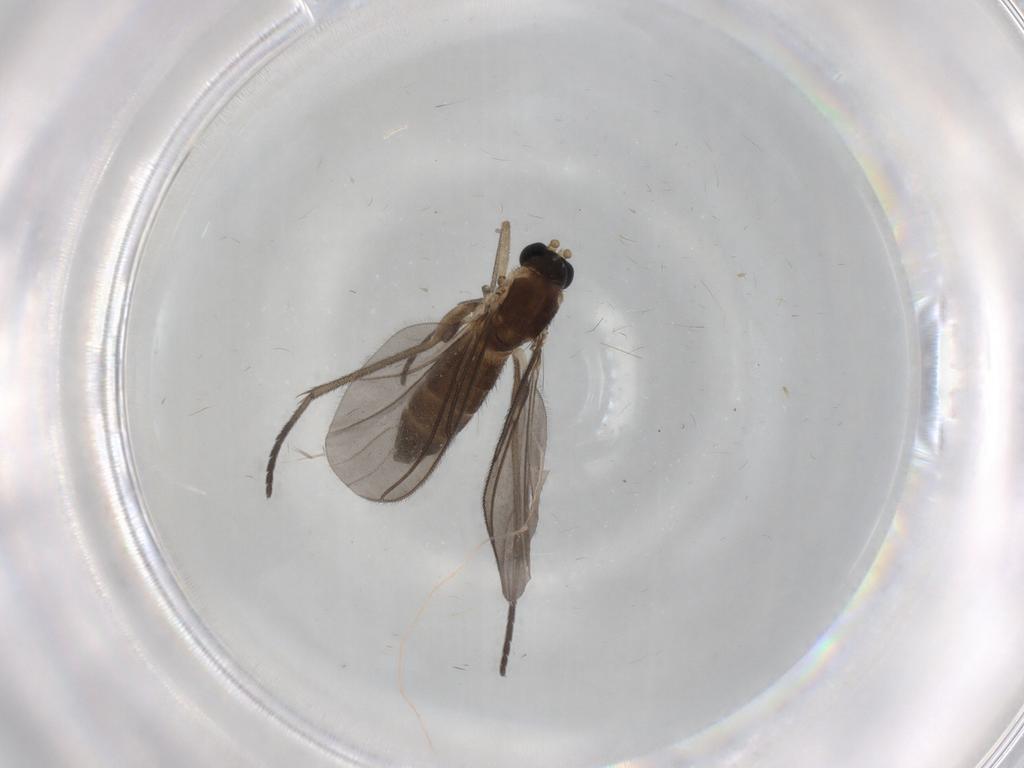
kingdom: Animalia
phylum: Arthropoda
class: Insecta
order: Diptera
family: Sciaridae
